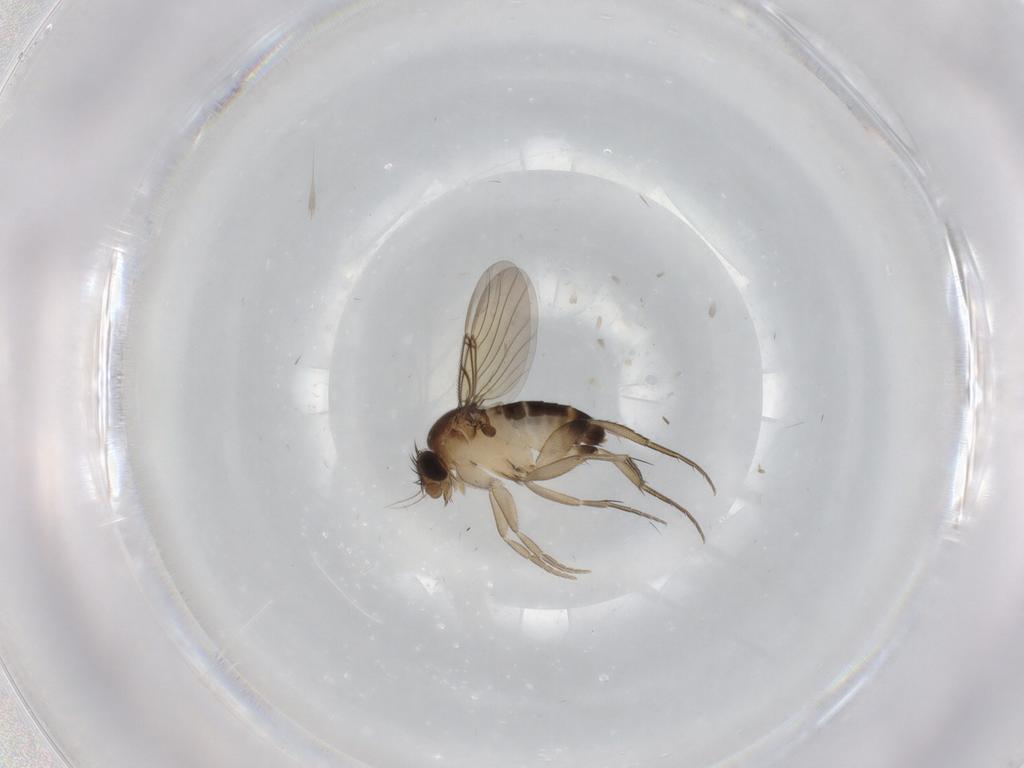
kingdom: Animalia
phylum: Arthropoda
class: Insecta
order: Diptera
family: Phoridae
